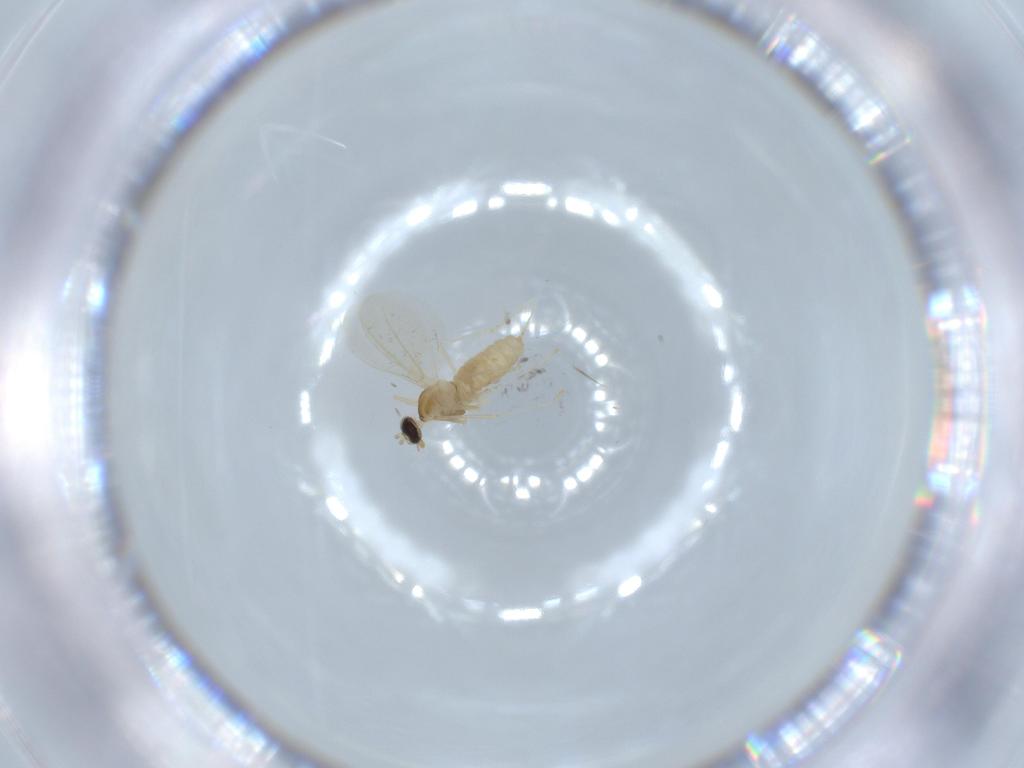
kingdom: Animalia
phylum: Arthropoda
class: Insecta
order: Diptera
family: Cecidomyiidae
